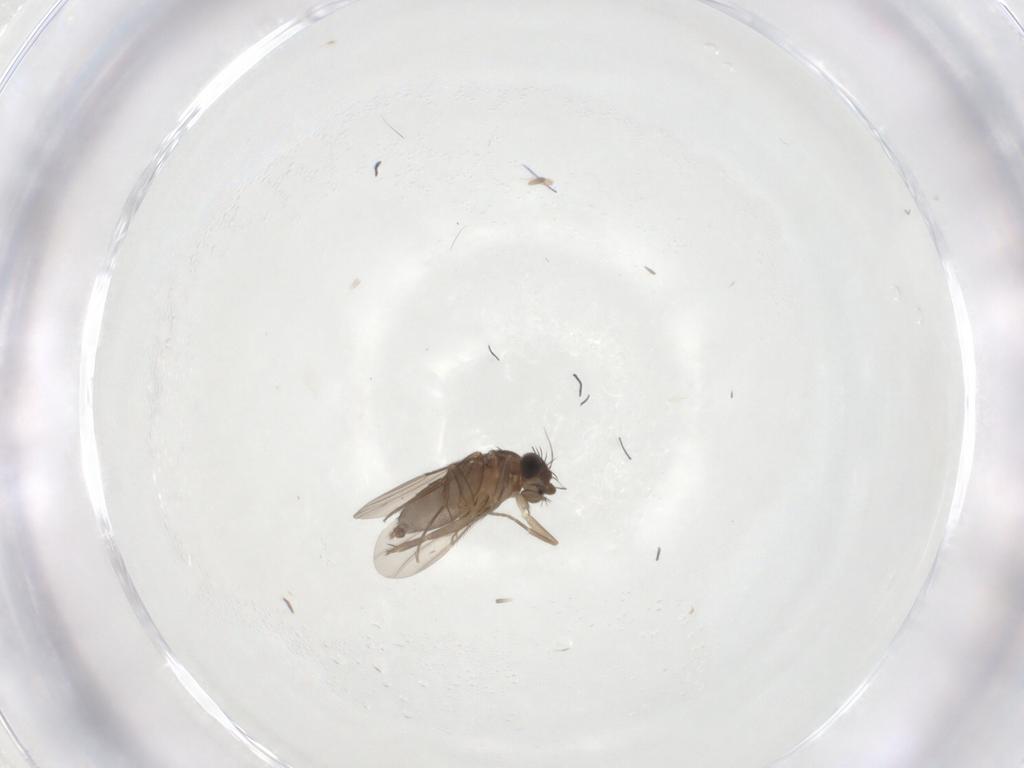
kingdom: Animalia
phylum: Arthropoda
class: Insecta
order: Diptera
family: Phoridae
